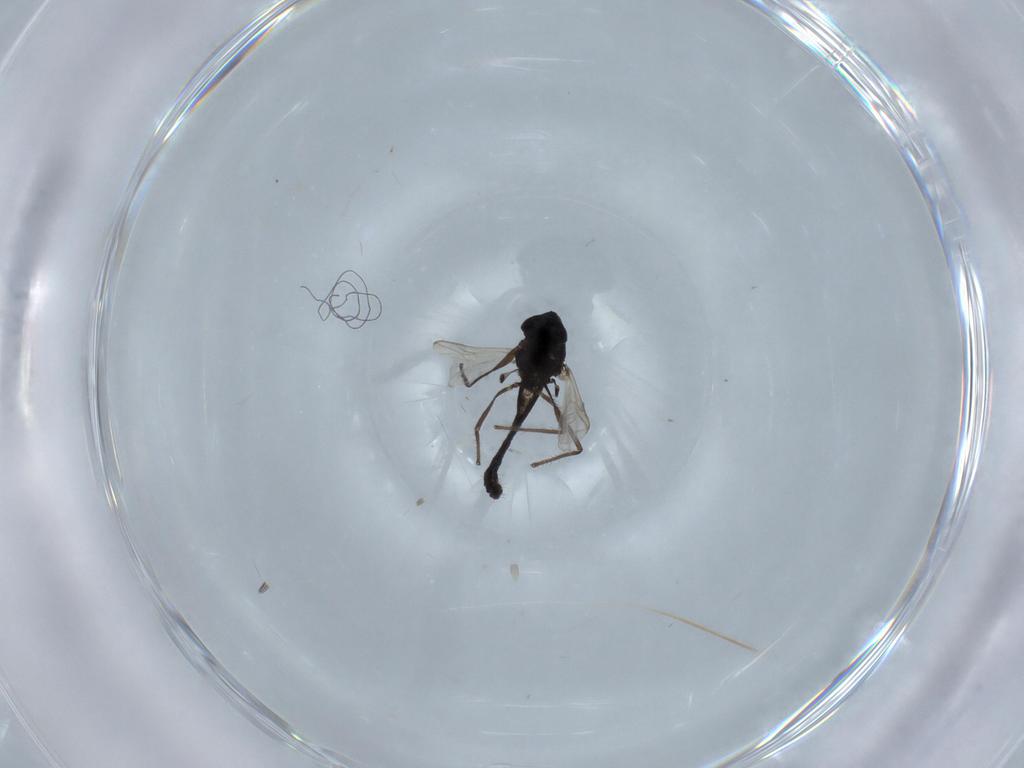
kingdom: Animalia
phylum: Arthropoda
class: Insecta
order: Diptera
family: Chironomidae
